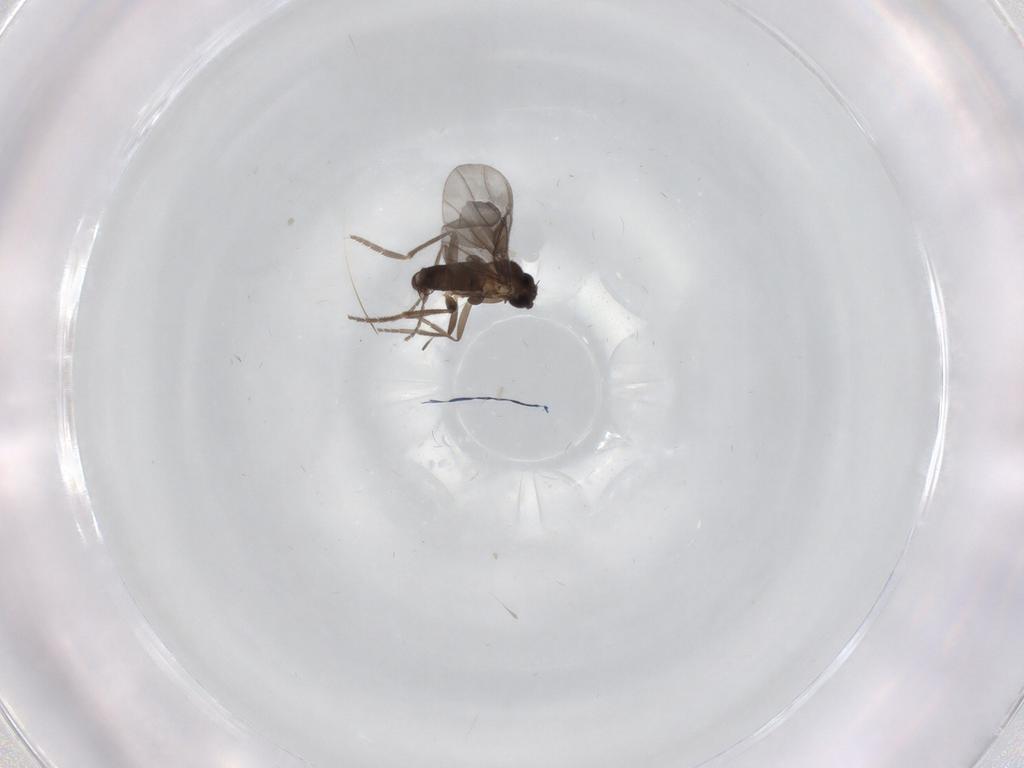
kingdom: Animalia
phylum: Arthropoda
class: Insecta
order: Diptera
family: Phoridae
